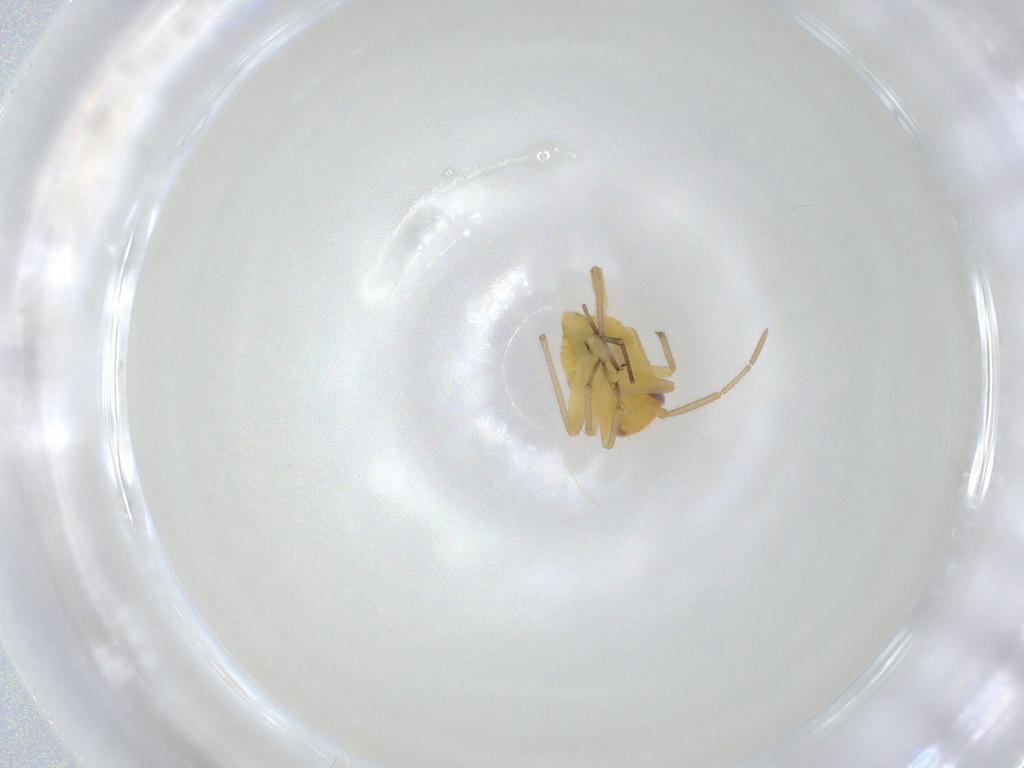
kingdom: Animalia
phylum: Arthropoda
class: Insecta
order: Hemiptera
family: Miridae
